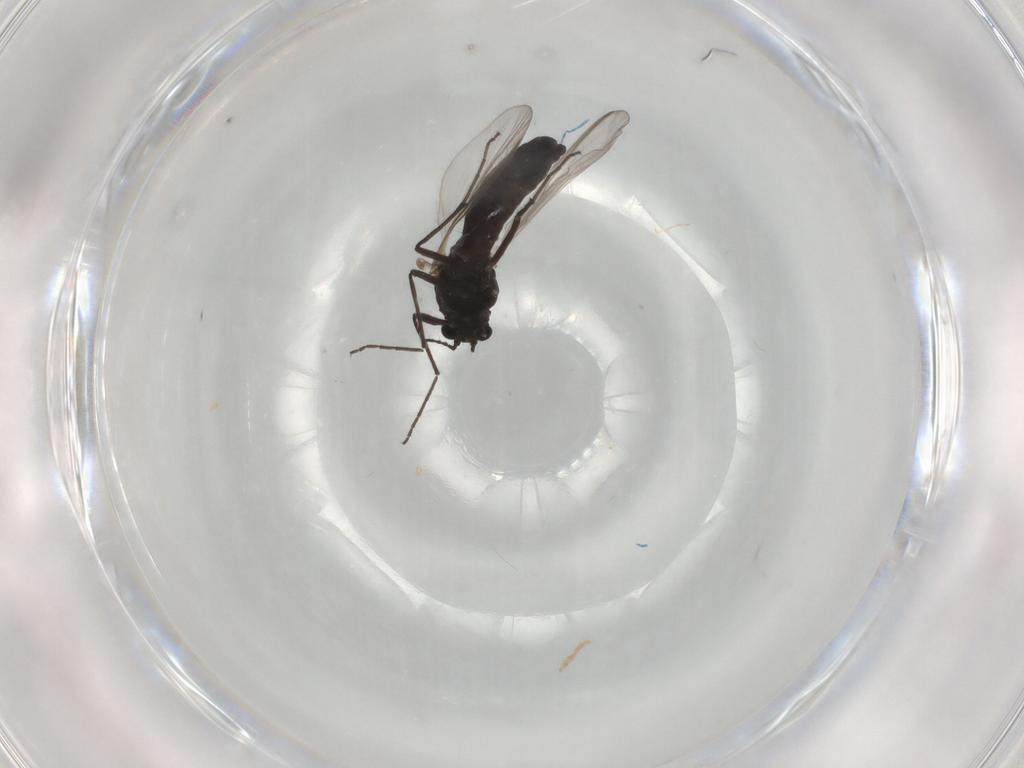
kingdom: Animalia
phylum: Arthropoda
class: Insecta
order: Diptera
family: Chironomidae
